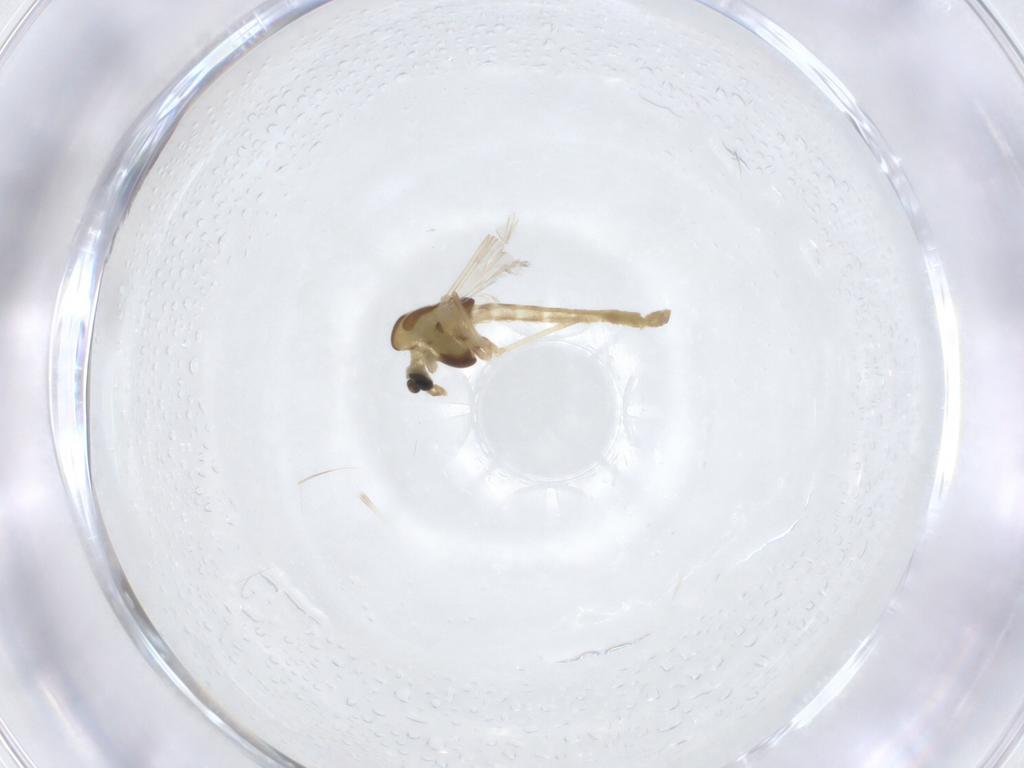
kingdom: Animalia
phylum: Arthropoda
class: Insecta
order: Diptera
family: Chironomidae
